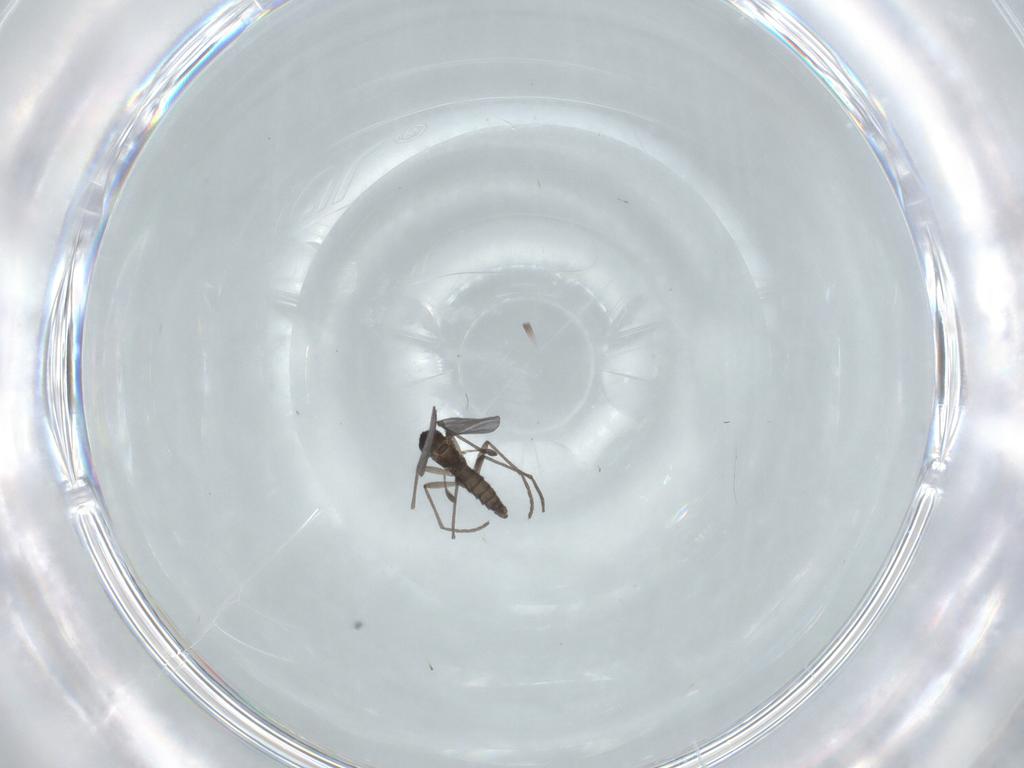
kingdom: Animalia
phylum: Arthropoda
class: Insecta
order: Diptera
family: Sciaridae
